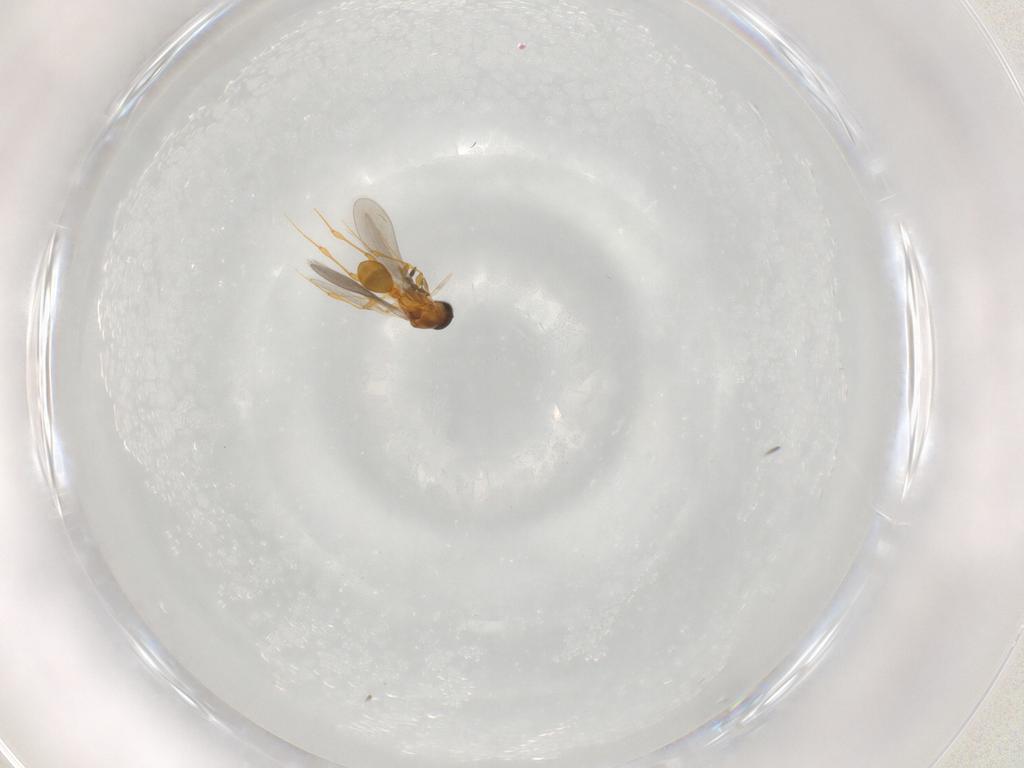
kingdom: Animalia
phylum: Arthropoda
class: Insecta
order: Hymenoptera
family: Platygastridae
